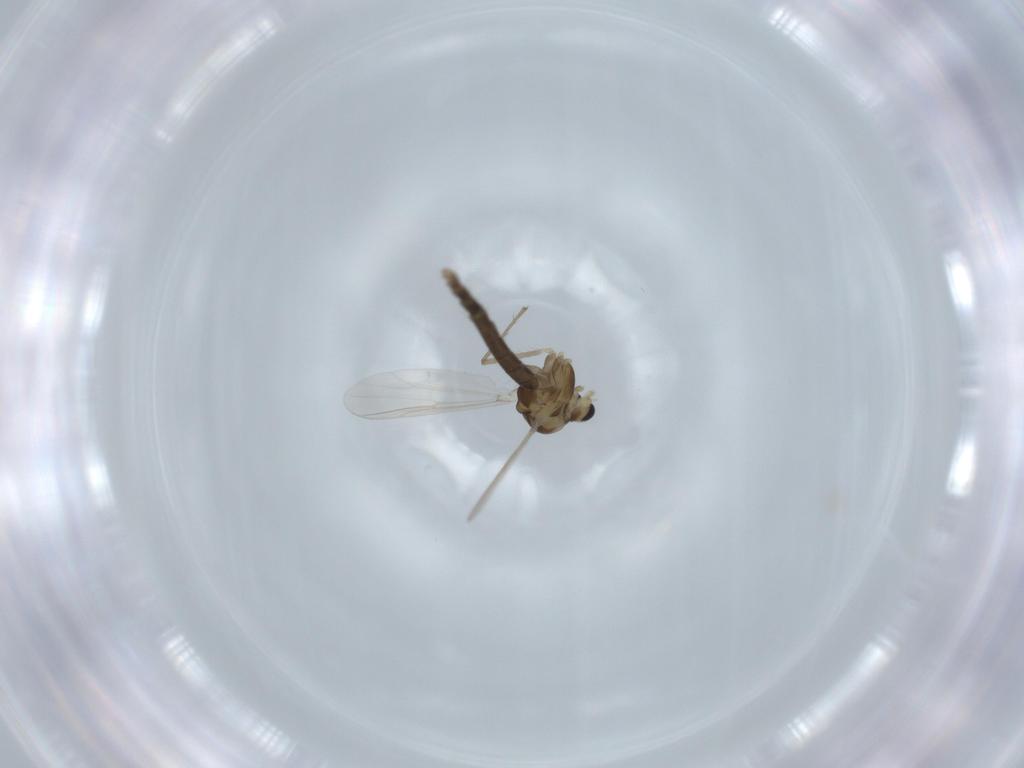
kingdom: Animalia
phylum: Arthropoda
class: Insecta
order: Diptera
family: Chironomidae
